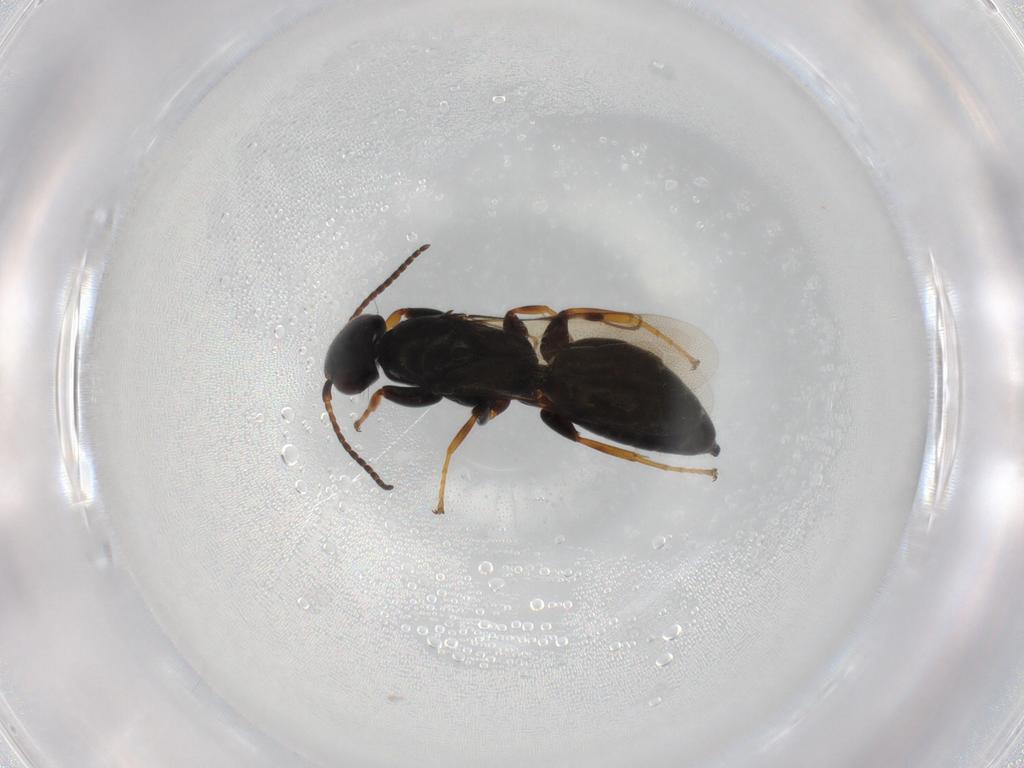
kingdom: Animalia
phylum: Arthropoda
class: Insecta
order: Hymenoptera
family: Bethylidae
